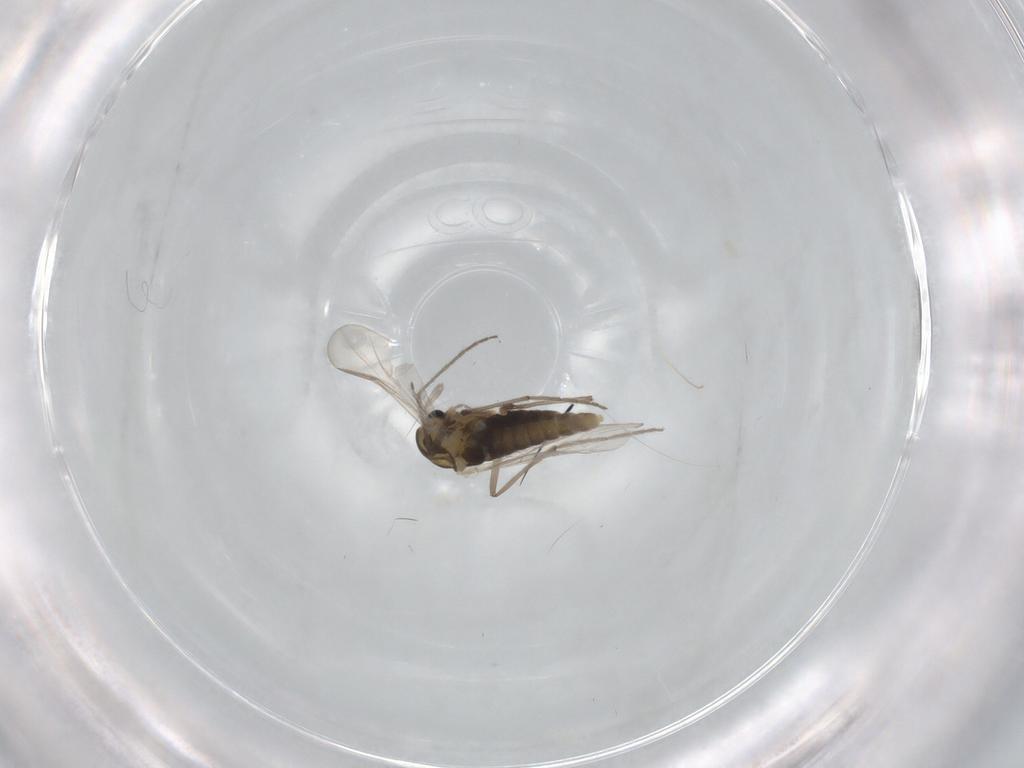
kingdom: Animalia
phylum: Arthropoda
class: Insecta
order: Diptera
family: Chironomidae
